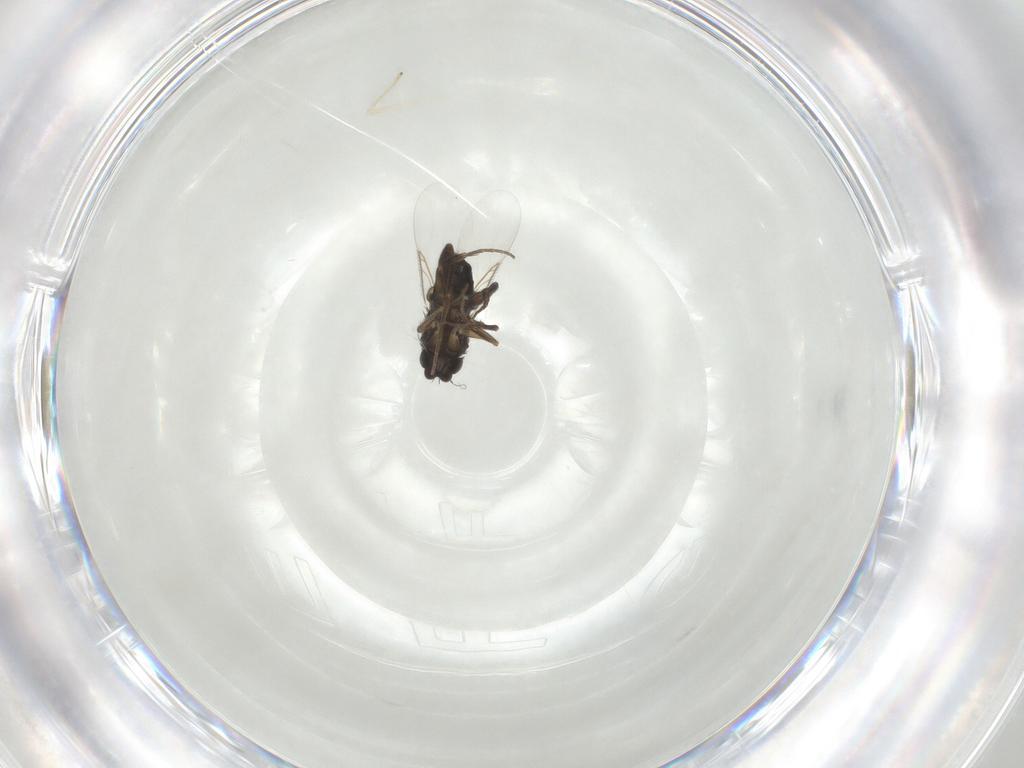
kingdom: Animalia
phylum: Arthropoda
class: Insecta
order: Diptera
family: Phoridae
